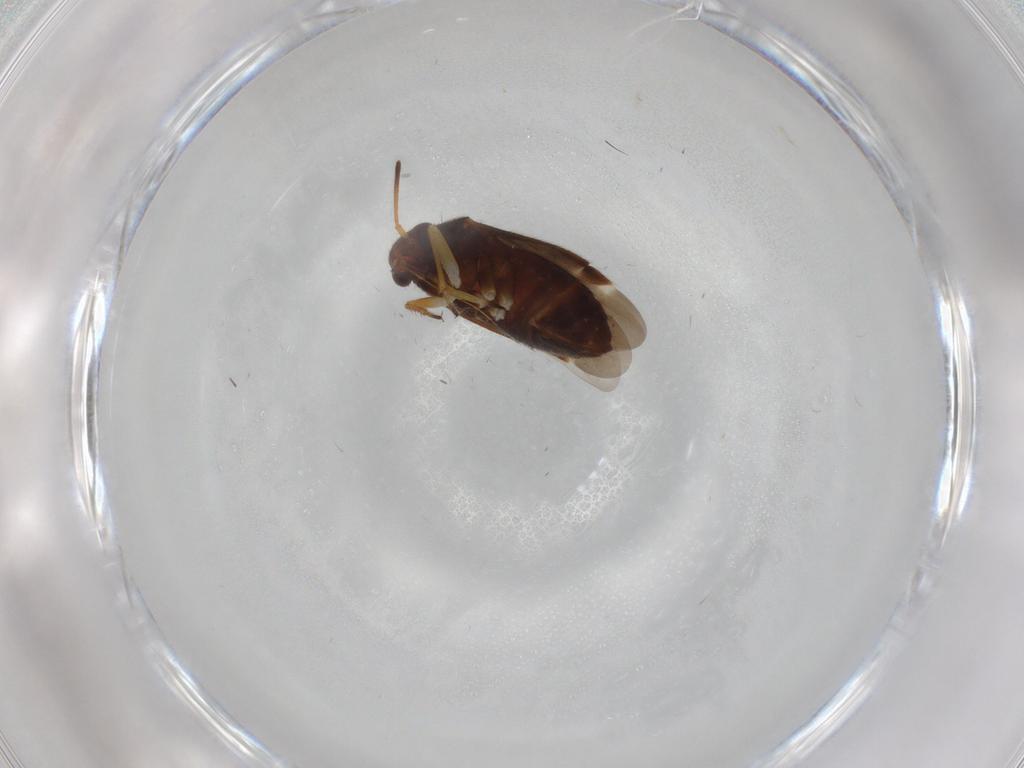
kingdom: Animalia
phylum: Arthropoda
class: Insecta
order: Hemiptera
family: Miridae
